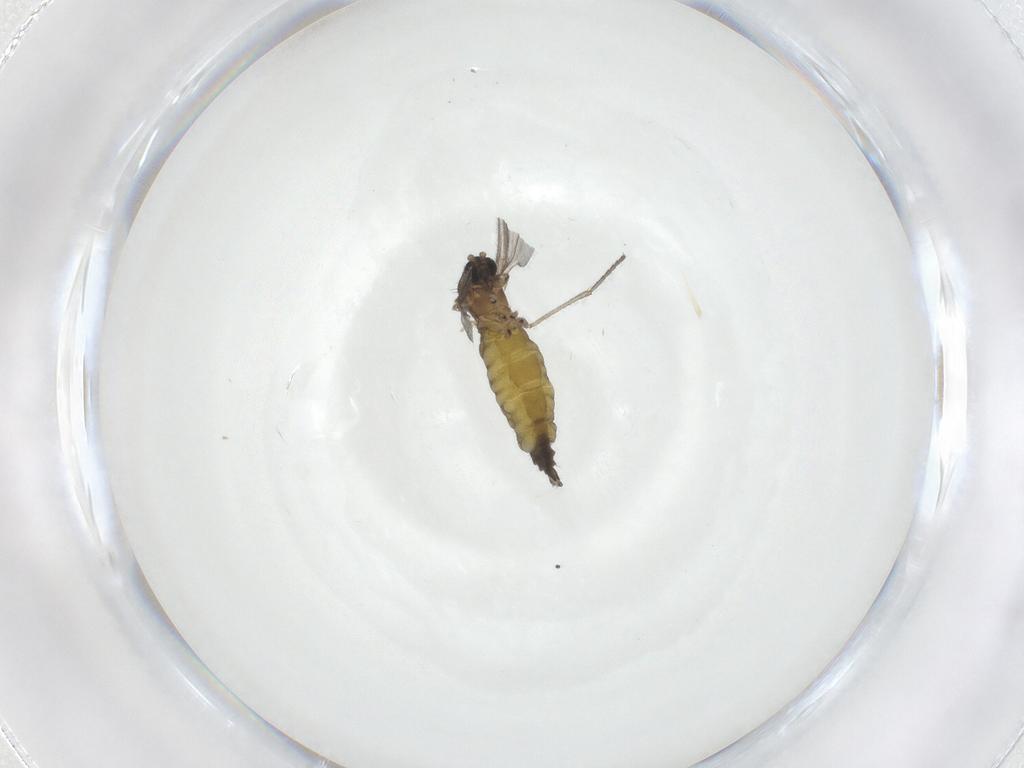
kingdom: Animalia
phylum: Arthropoda
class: Insecta
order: Diptera
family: Sciaridae
